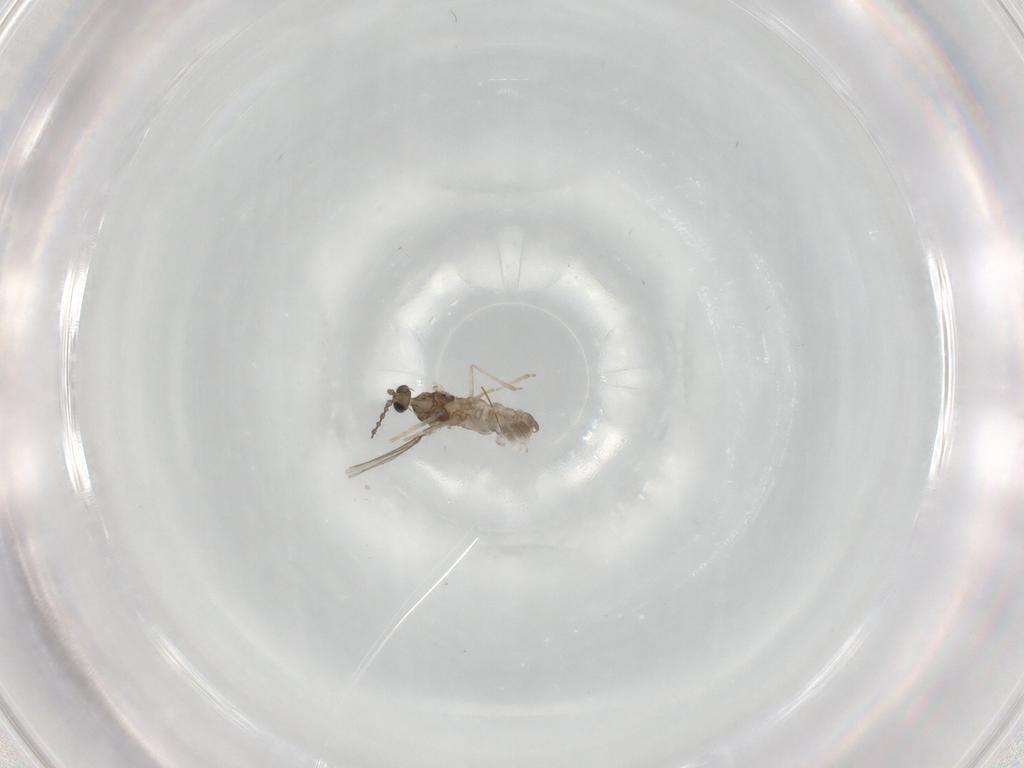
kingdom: Animalia
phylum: Arthropoda
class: Insecta
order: Diptera
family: Cecidomyiidae
